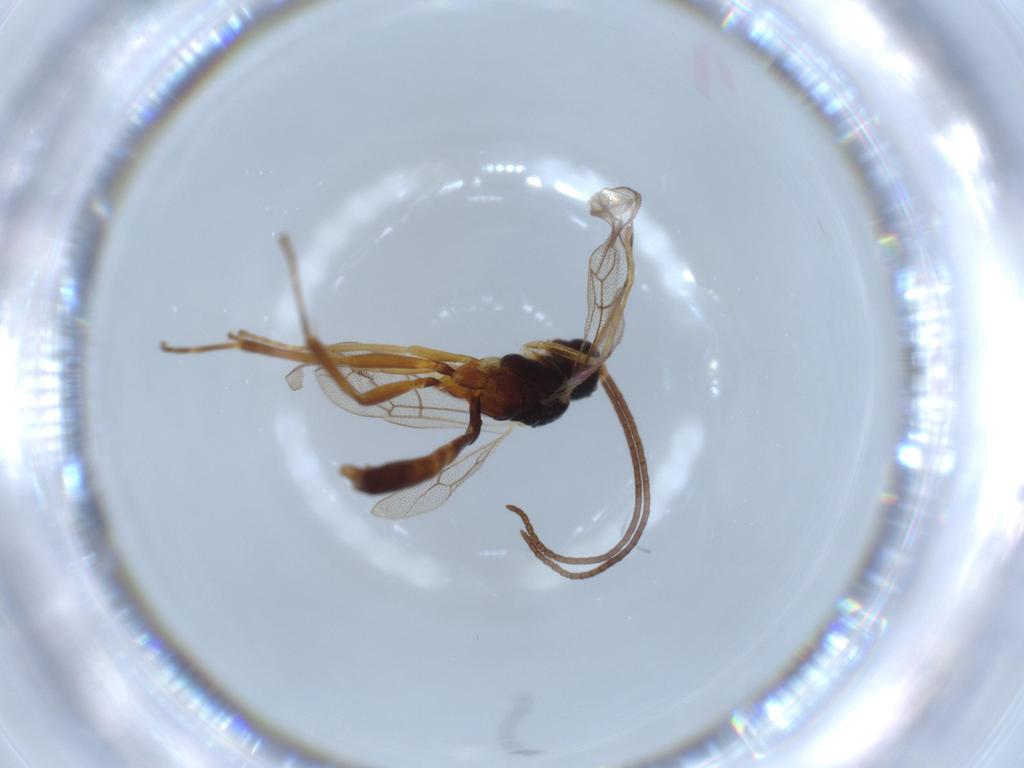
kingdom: Animalia
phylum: Arthropoda
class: Insecta
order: Hymenoptera
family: Ichneumonidae
